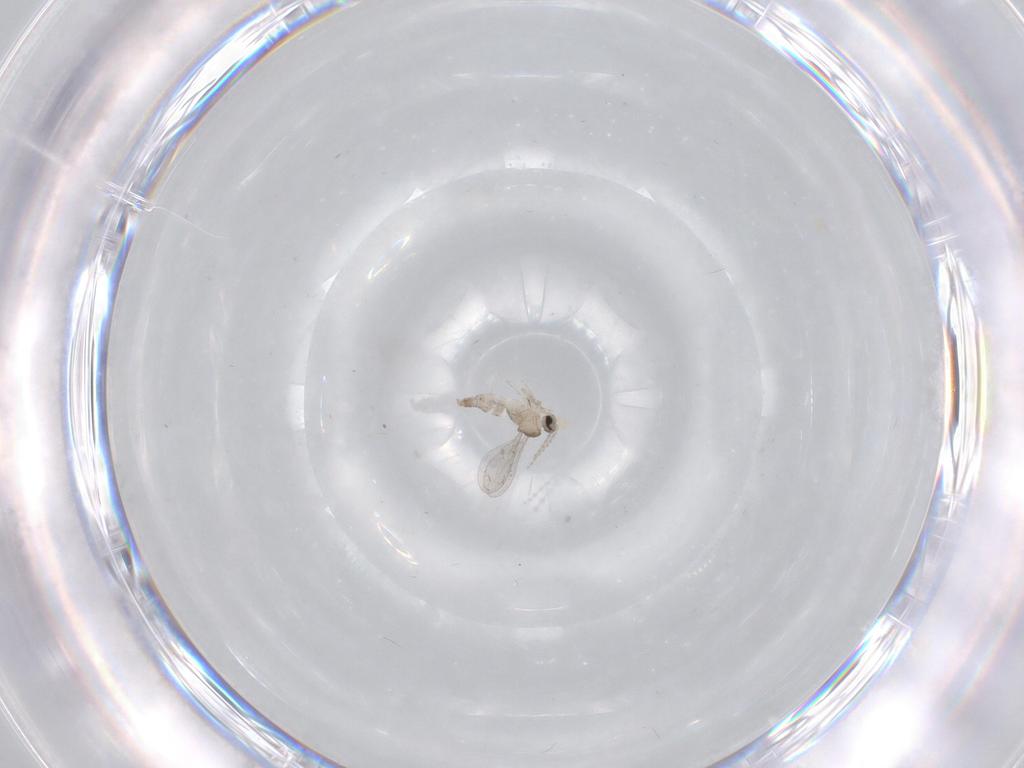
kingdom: Animalia
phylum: Arthropoda
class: Insecta
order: Diptera
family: Cecidomyiidae
